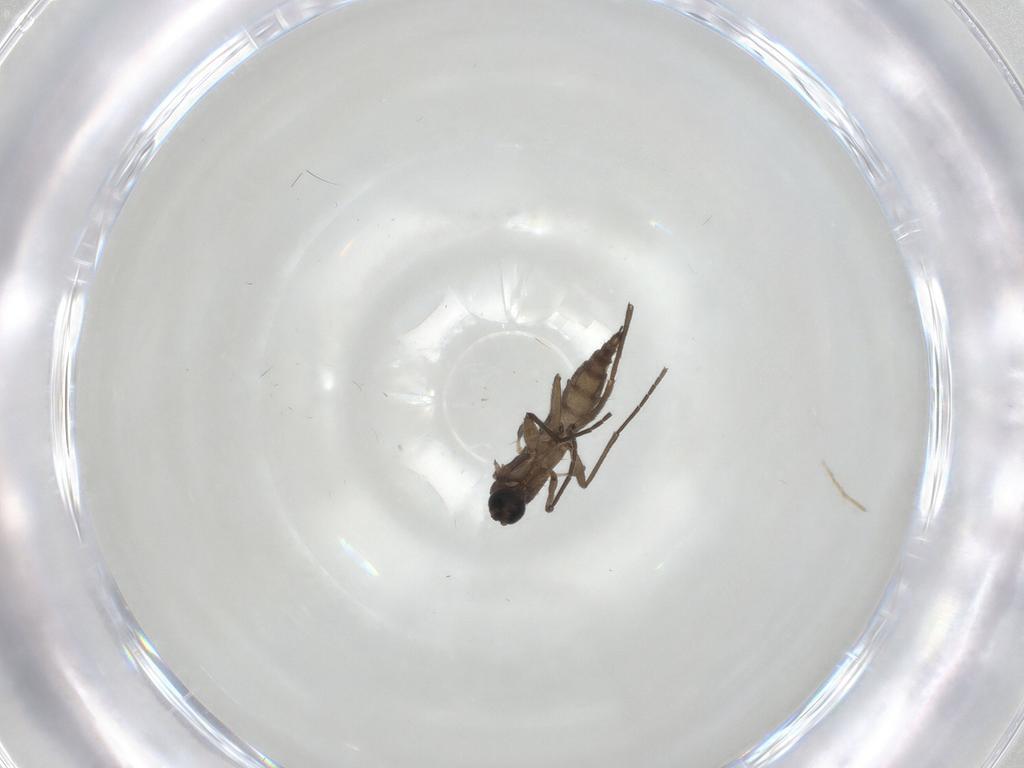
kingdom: Animalia
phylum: Arthropoda
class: Insecta
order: Diptera
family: Sciaridae
